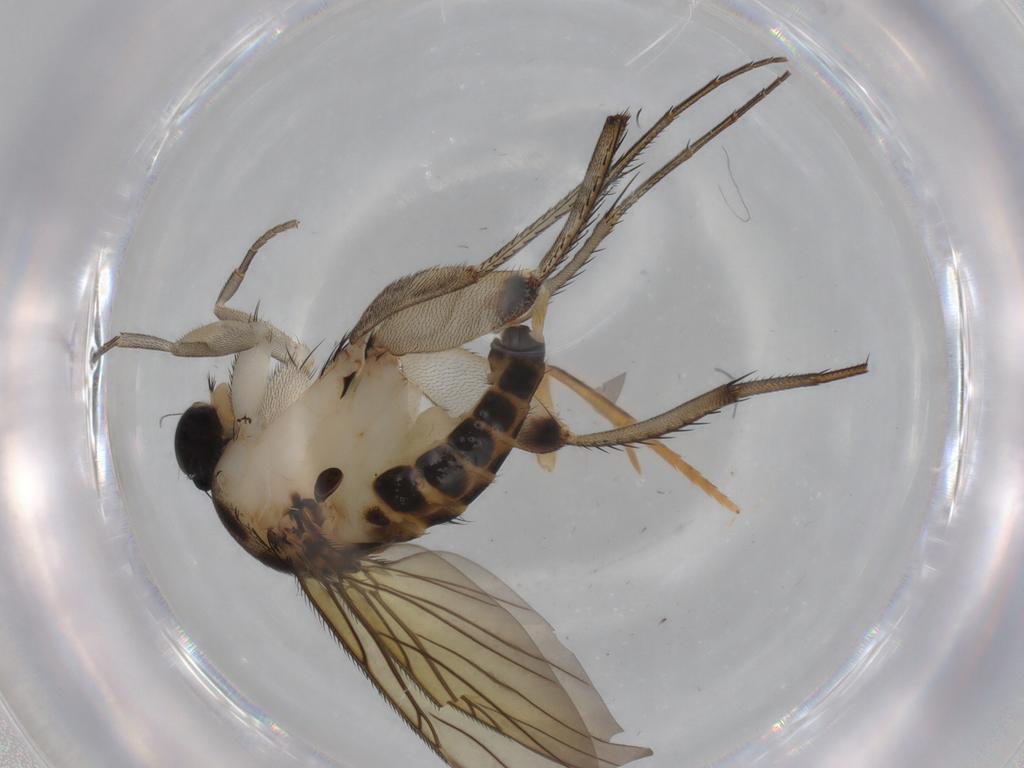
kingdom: Animalia
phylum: Arthropoda
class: Insecta
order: Diptera
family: Phoridae
